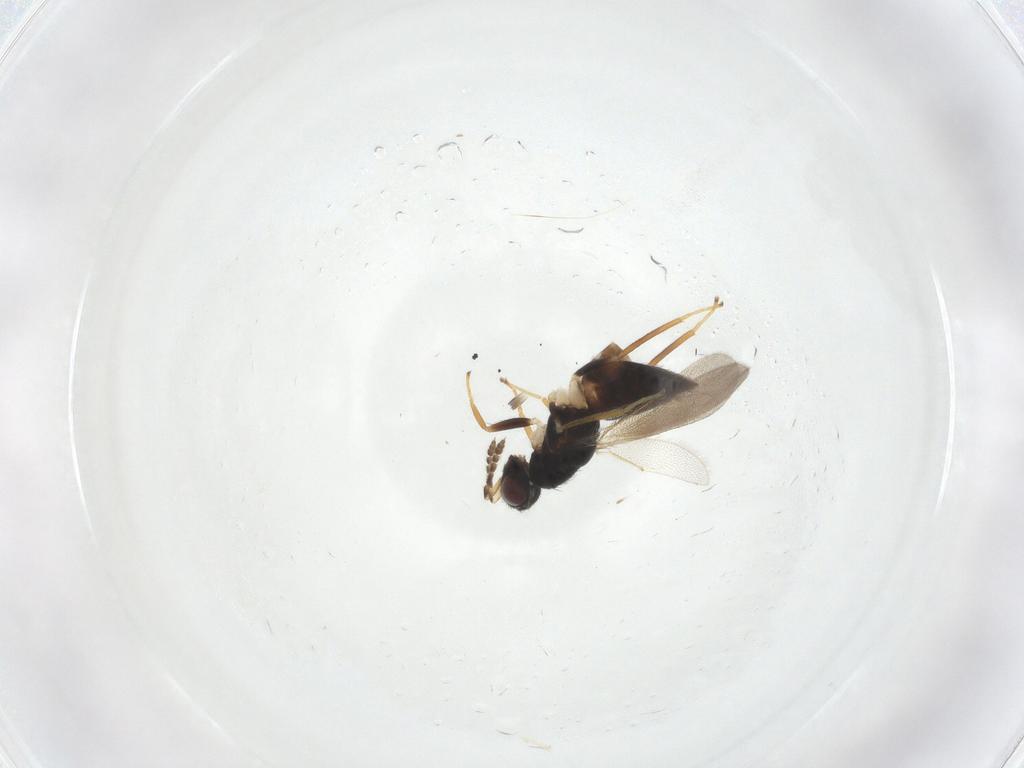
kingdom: Animalia
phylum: Arthropoda
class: Insecta
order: Hymenoptera
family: Eulophidae
